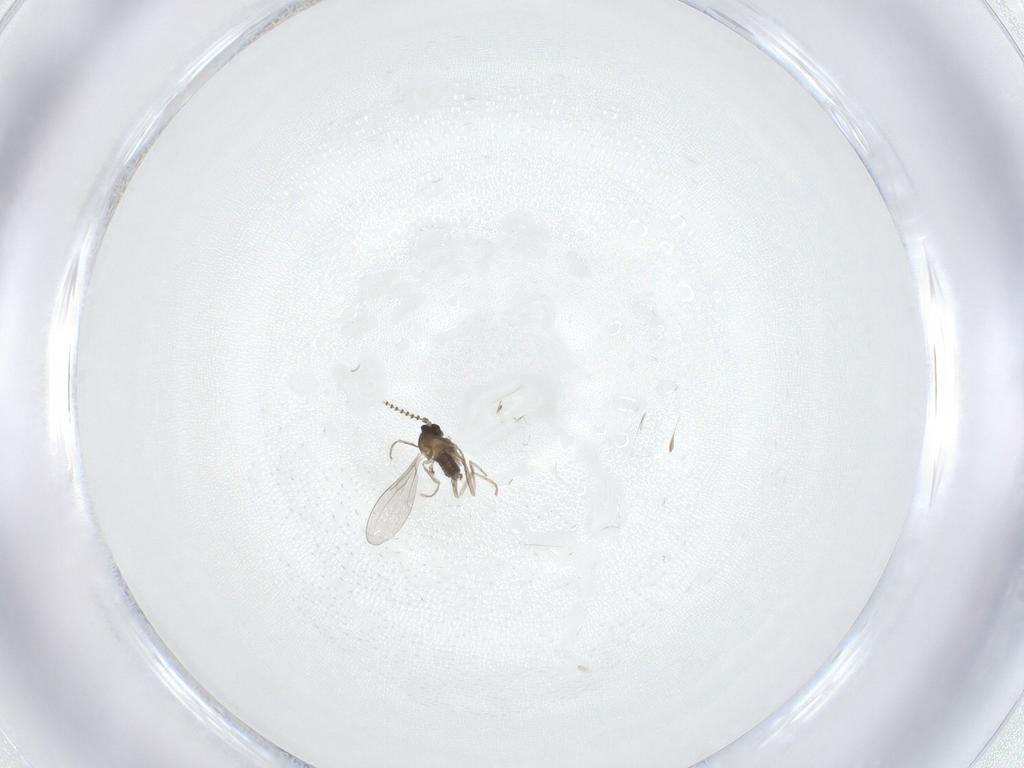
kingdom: Animalia
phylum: Arthropoda
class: Insecta
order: Diptera
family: Cecidomyiidae
